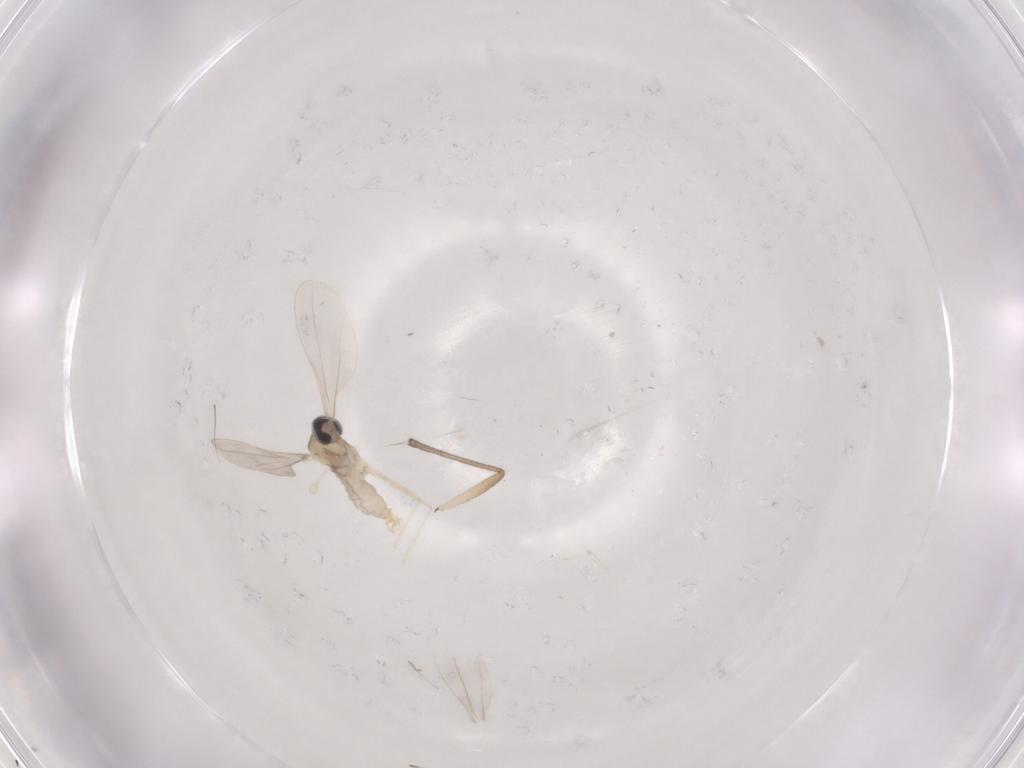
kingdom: Animalia
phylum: Arthropoda
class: Insecta
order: Diptera
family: Cecidomyiidae
